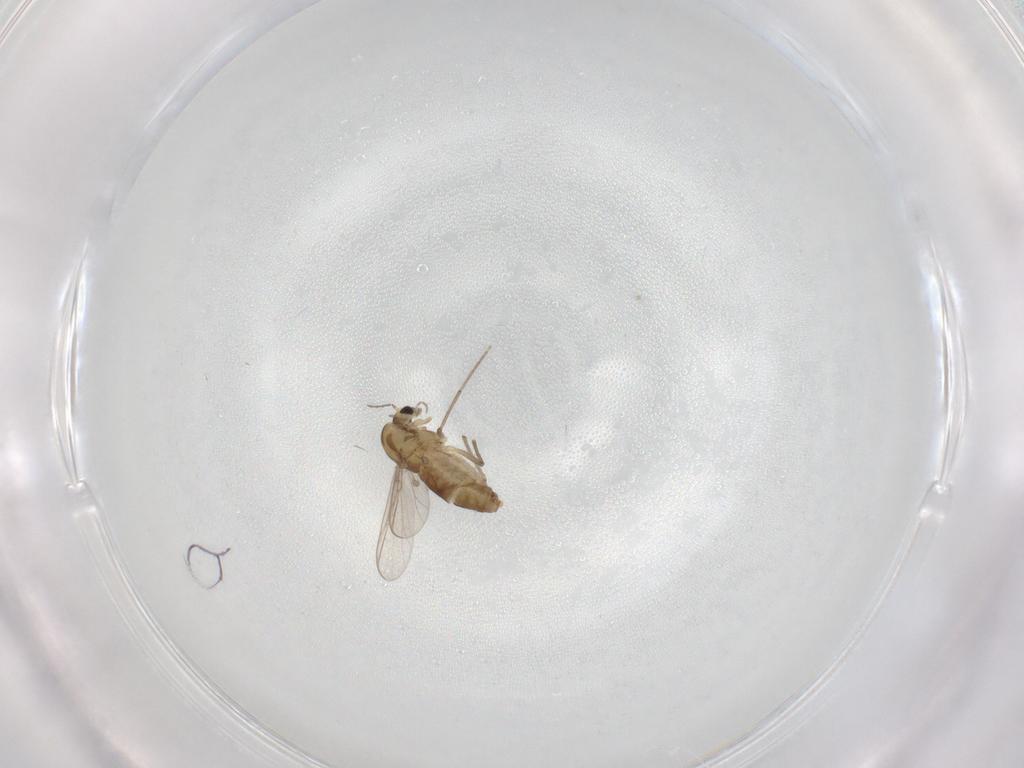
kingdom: Animalia
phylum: Arthropoda
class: Insecta
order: Diptera
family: Chironomidae
